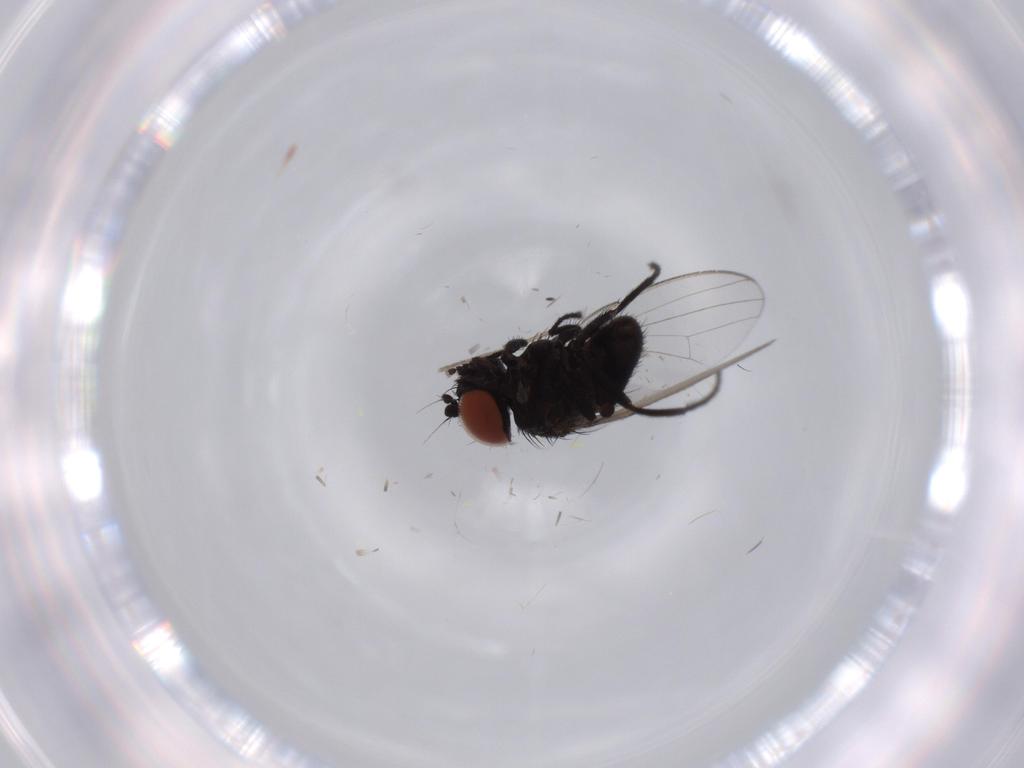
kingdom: Animalia
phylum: Arthropoda
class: Insecta
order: Diptera
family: Milichiidae
